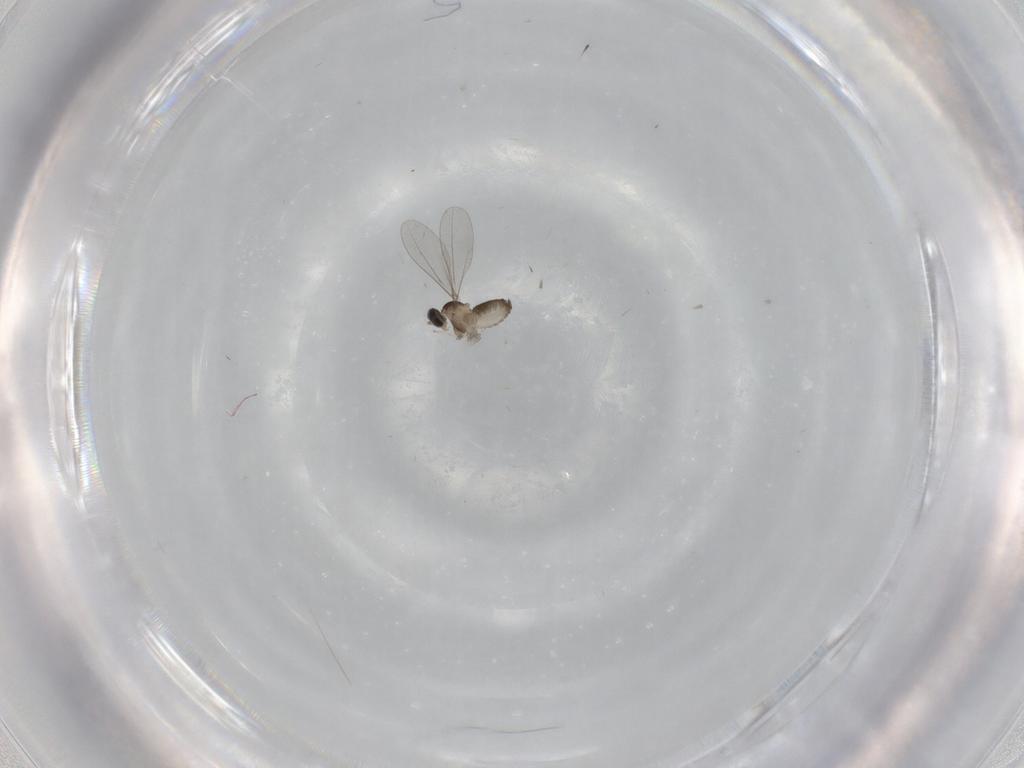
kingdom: Animalia
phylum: Arthropoda
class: Insecta
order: Diptera
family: Cecidomyiidae
